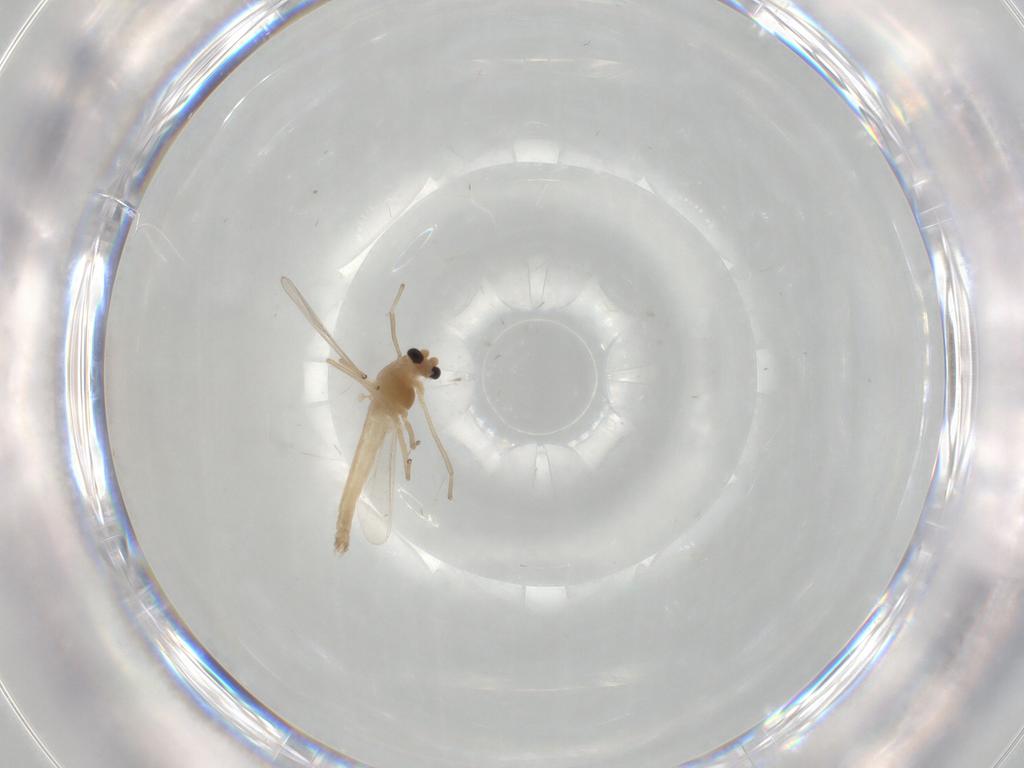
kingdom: Animalia
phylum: Arthropoda
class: Insecta
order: Diptera
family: Chironomidae
